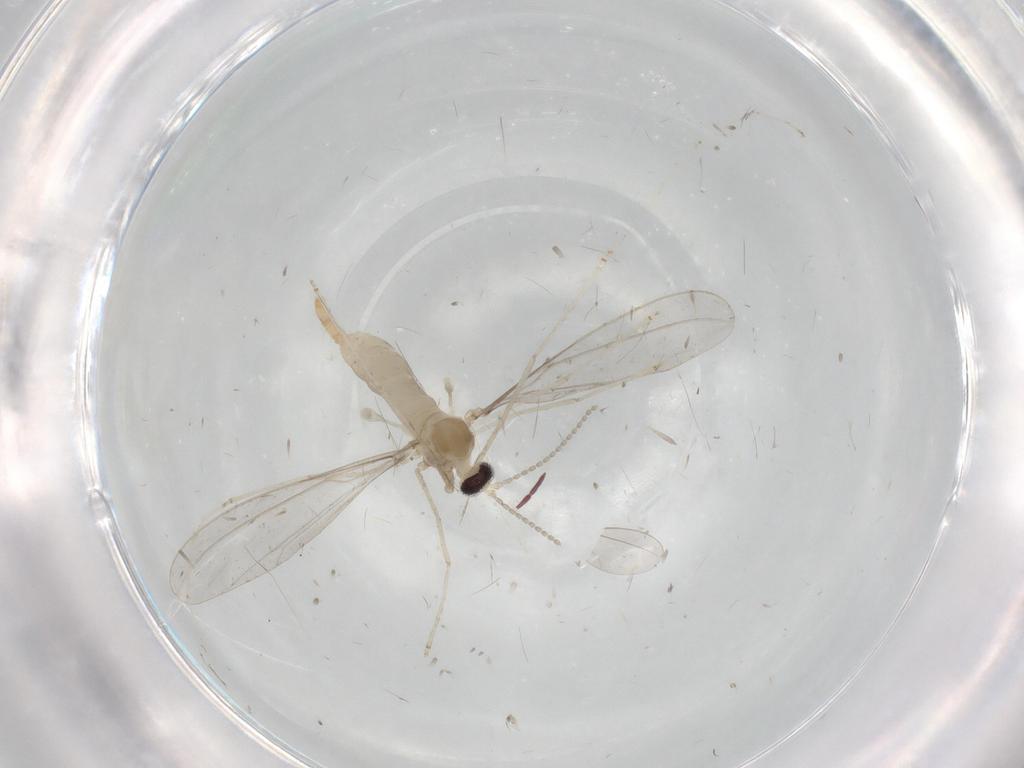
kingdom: Animalia
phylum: Arthropoda
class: Insecta
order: Diptera
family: Cecidomyiidae
